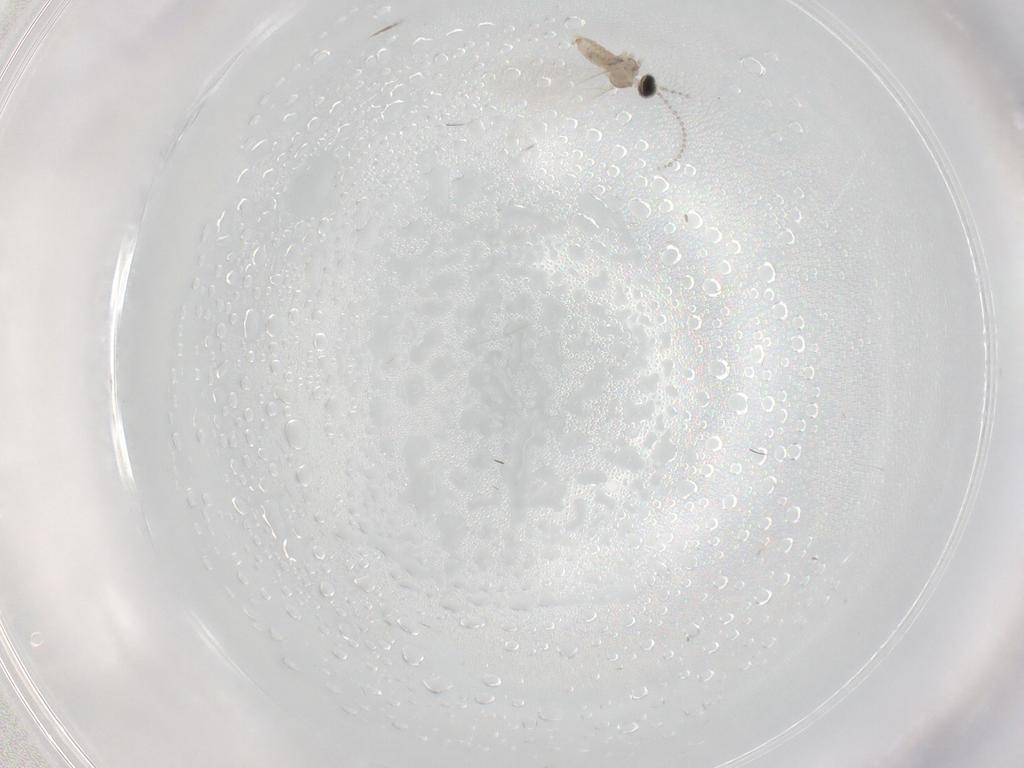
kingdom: Animalia
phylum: Arthropoda
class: Insecta
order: Diptera
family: Cecidomyiidae
